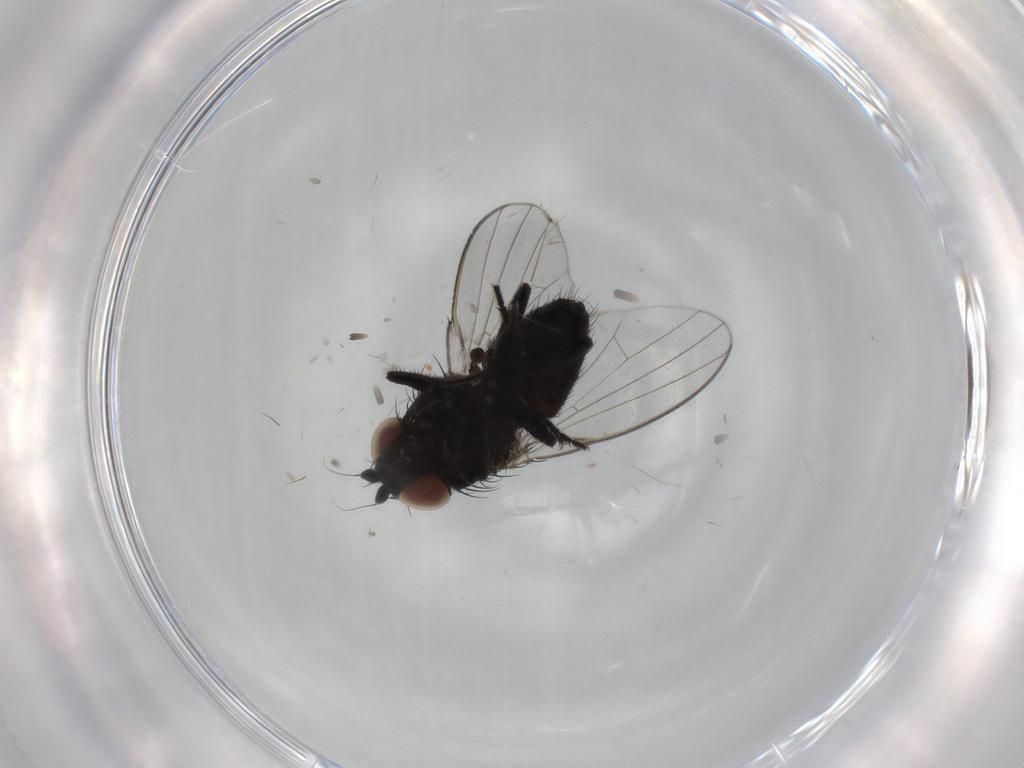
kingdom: Animalia
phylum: Arthropoda
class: Insecta
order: Diptera
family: Milichiidae
